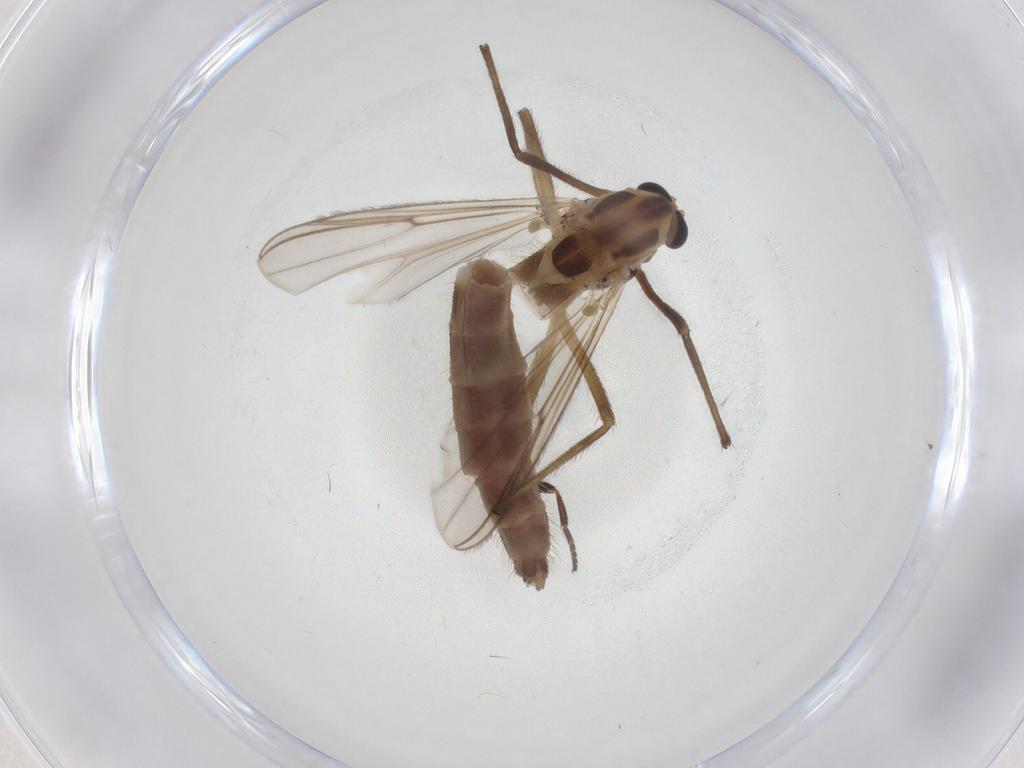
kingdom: Animalia
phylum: Arthropoda
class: Insecta
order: Diptera
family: Chironomidae
